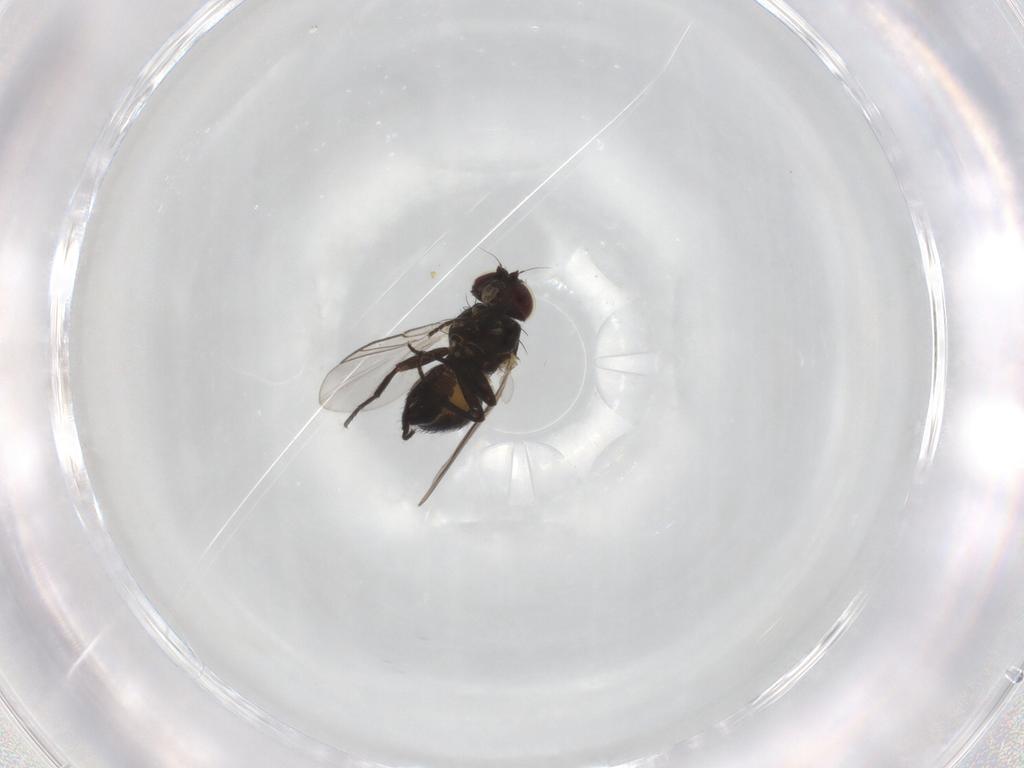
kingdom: Animalia
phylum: Arthropoda
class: Insecta
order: Diptera
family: Agromyzidae
